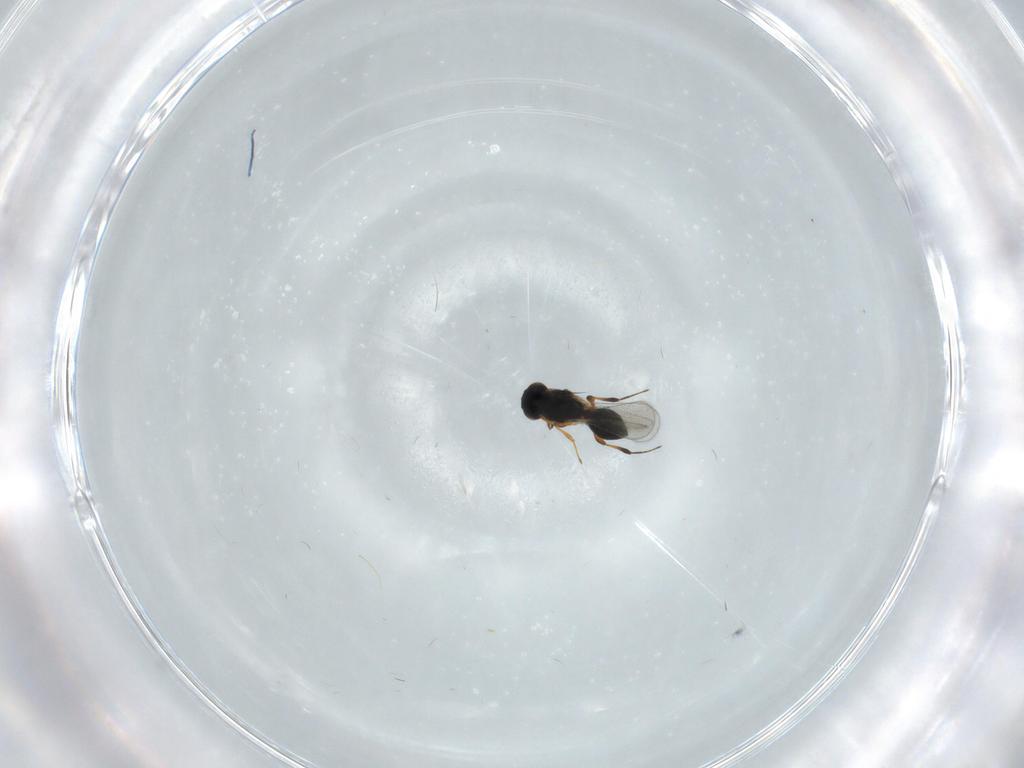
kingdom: Animalia
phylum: Arthropoda
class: Insecta
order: Hymenoptera
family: Platygastridae
